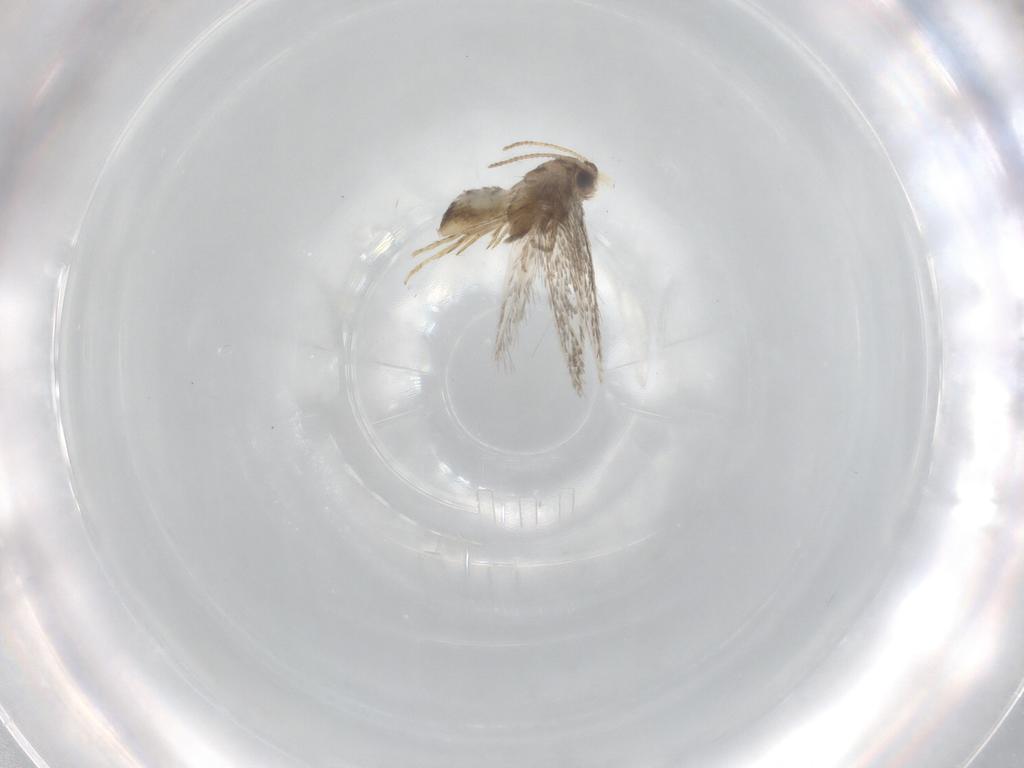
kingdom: Animalia
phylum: Arthropoda
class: Insecta
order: Lepidoptera
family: Nepticulidae
